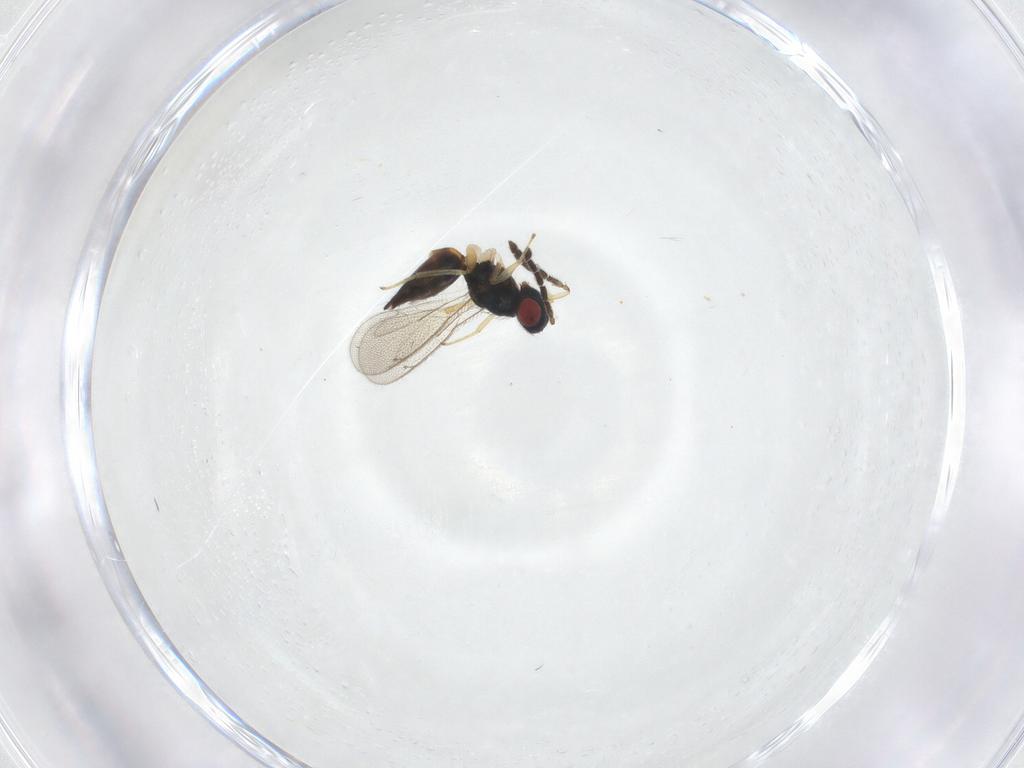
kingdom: Animalia
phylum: Arthropoda
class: Insecta
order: Hymenoptera
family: Eulophidae
